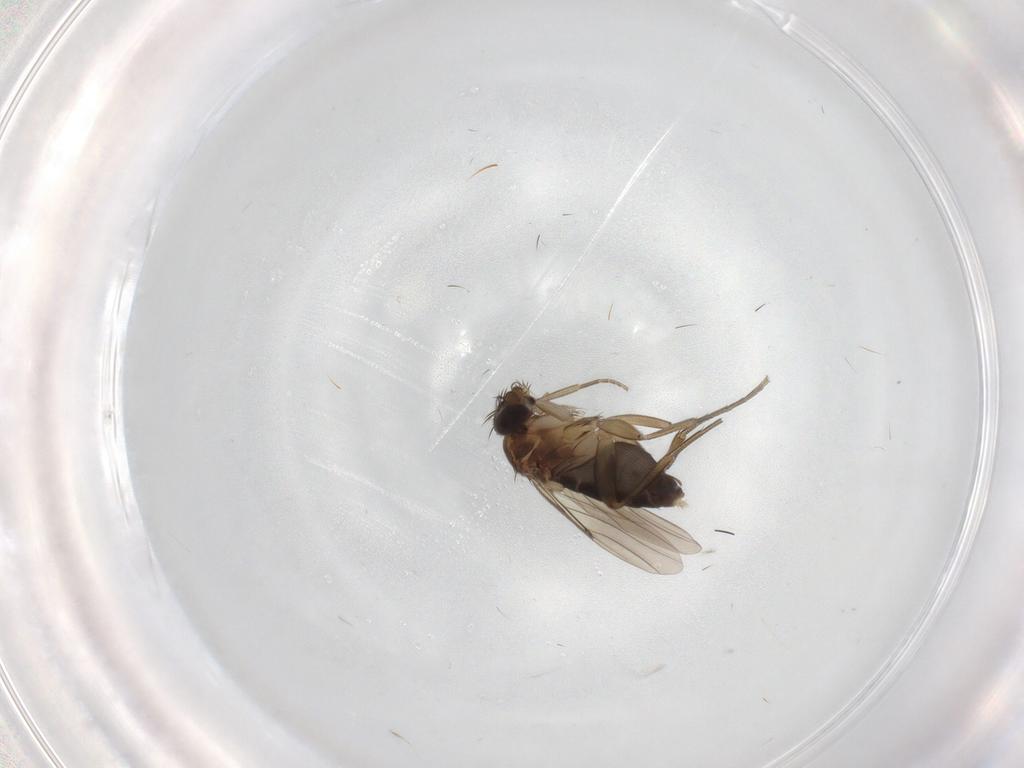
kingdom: Animalia
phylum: Arthropoda
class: Insecta
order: Diptera
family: Phoridae
